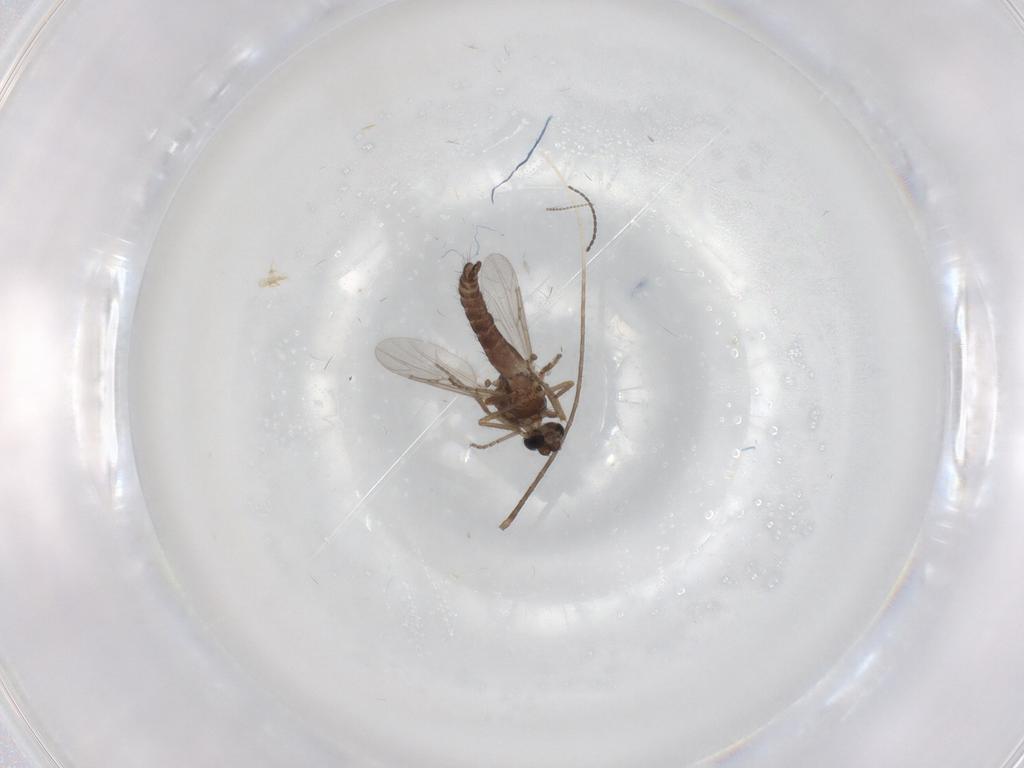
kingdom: Animalia
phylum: Arthropoda
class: Insecta
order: Diptera
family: Ceratopogonidae
